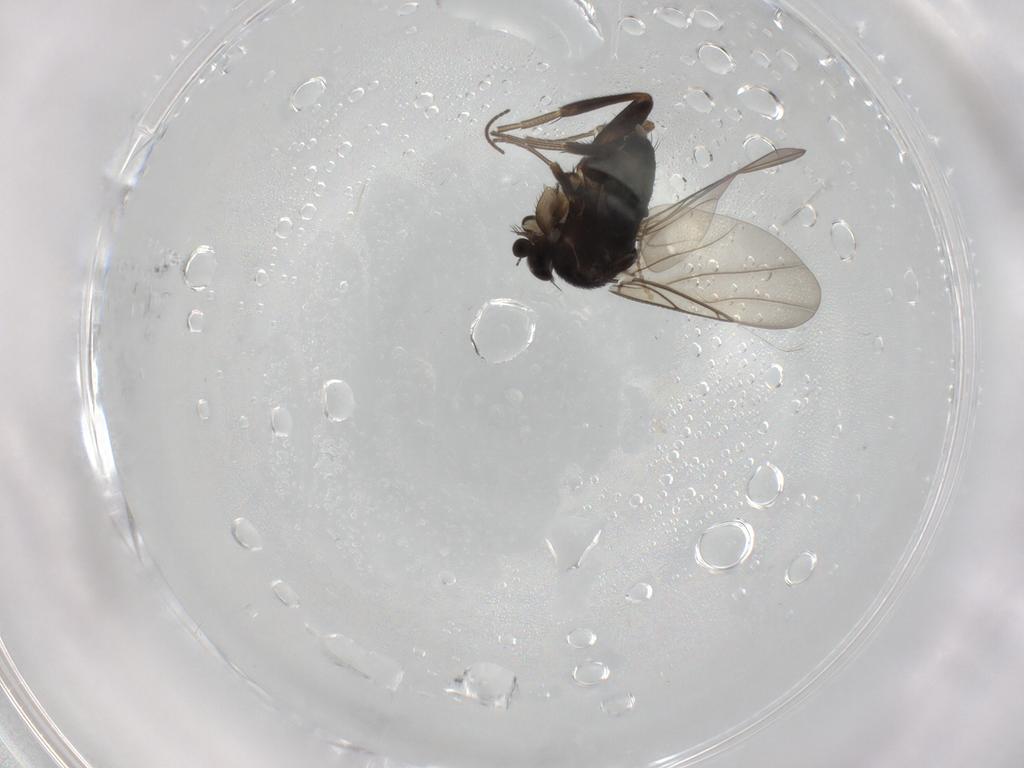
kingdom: Animalia
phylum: Arthropoda
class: Insecta
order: Diptera
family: Phoridae
